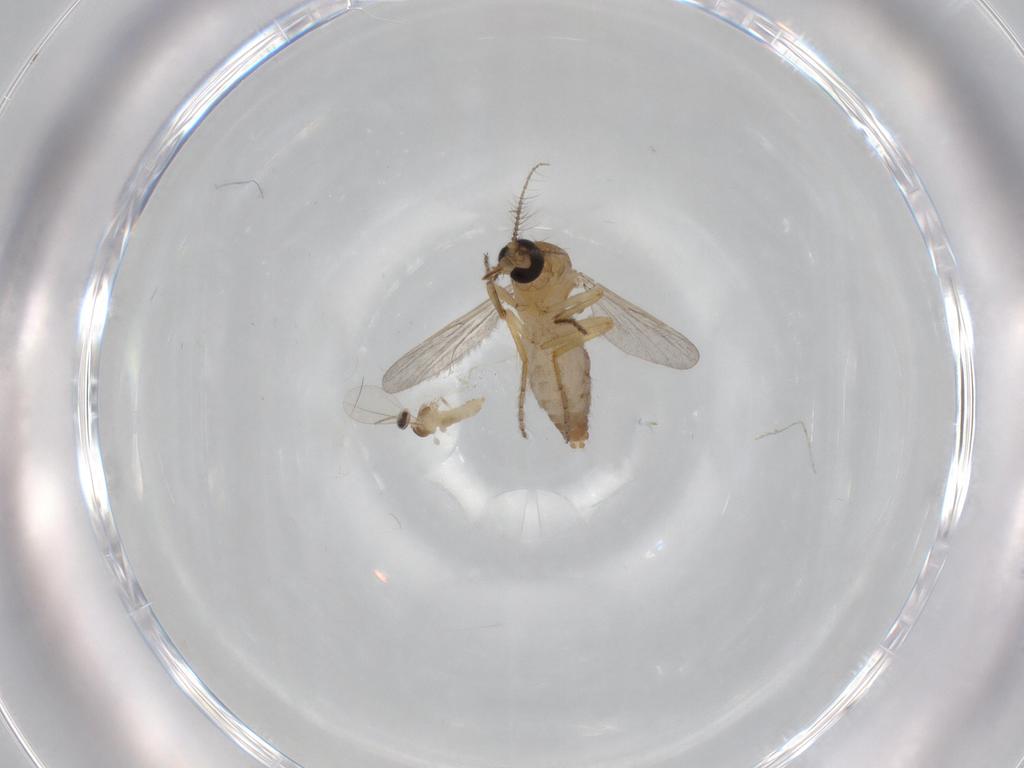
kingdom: Animalia
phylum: Arthropoda
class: Insecta
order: Diptera
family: Ceratopogonidae
